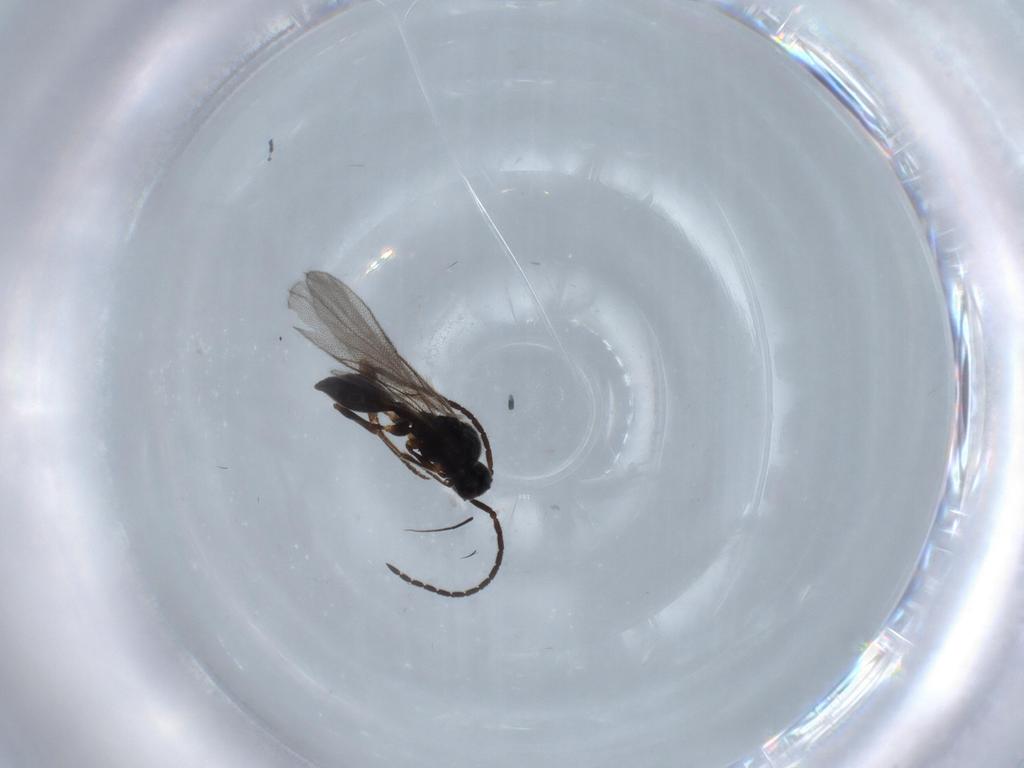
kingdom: Animalia
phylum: Arthropoda
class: Insecta
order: Hymenoptera
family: Diapriidae
